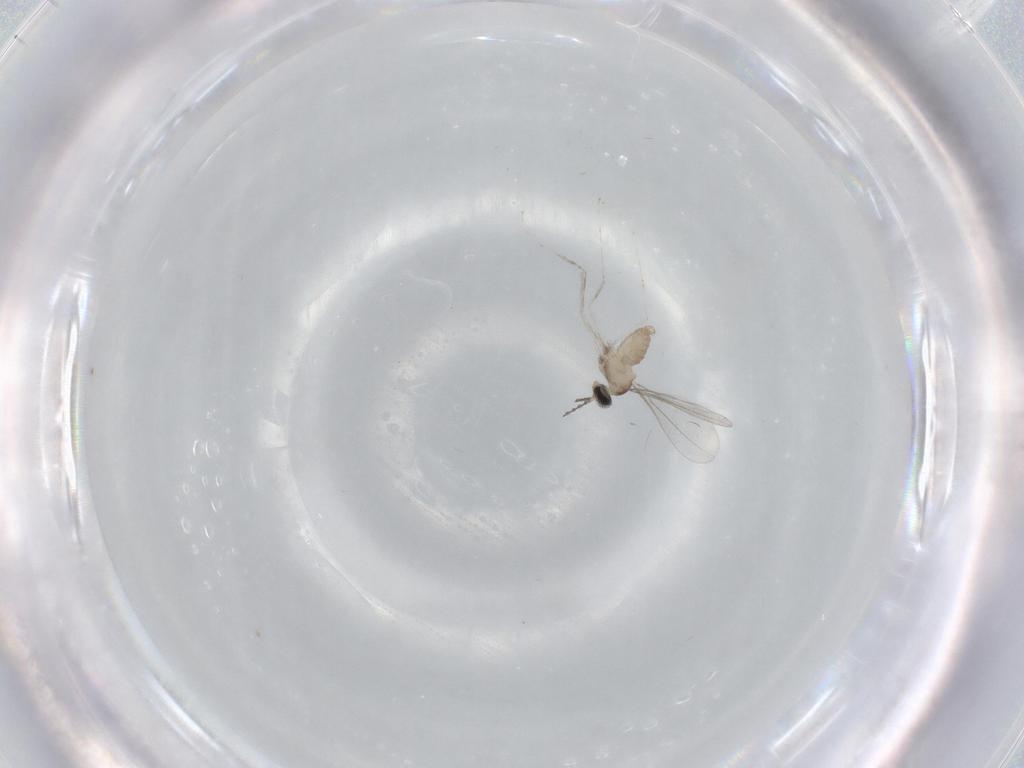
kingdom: Animalia
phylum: Arthropoda
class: Insecta
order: Diptera
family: Cecidomyiidae
